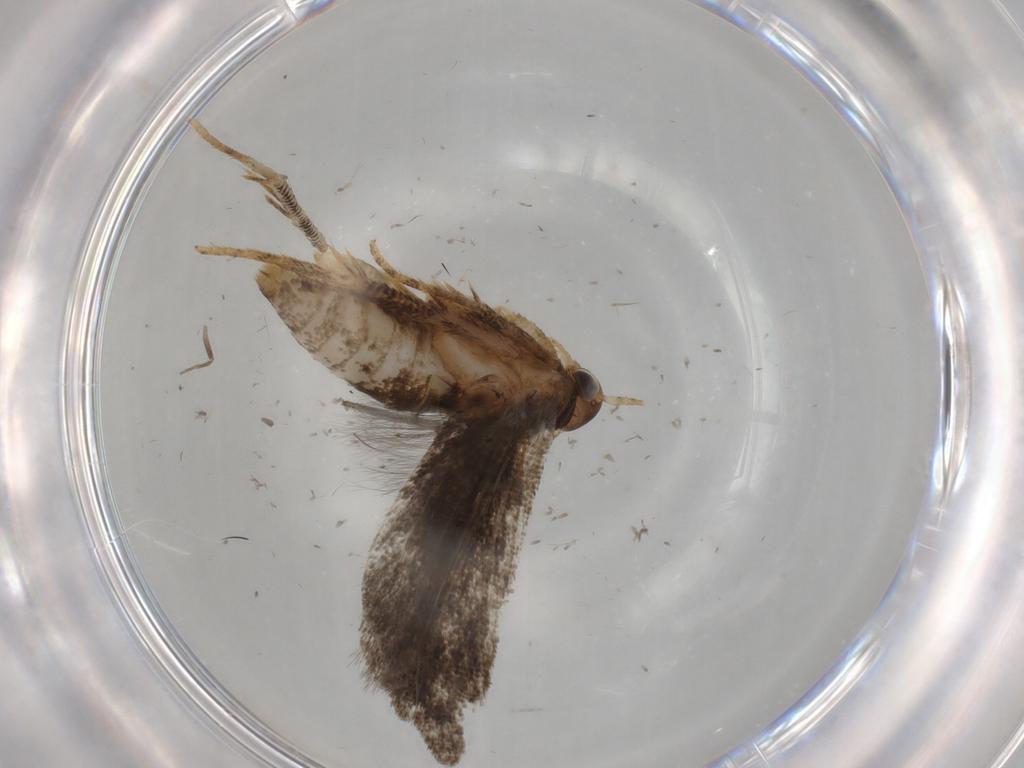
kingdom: Animalia
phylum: Arthropoda
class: Insecta
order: Lepidoptera
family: Gelechiidae
